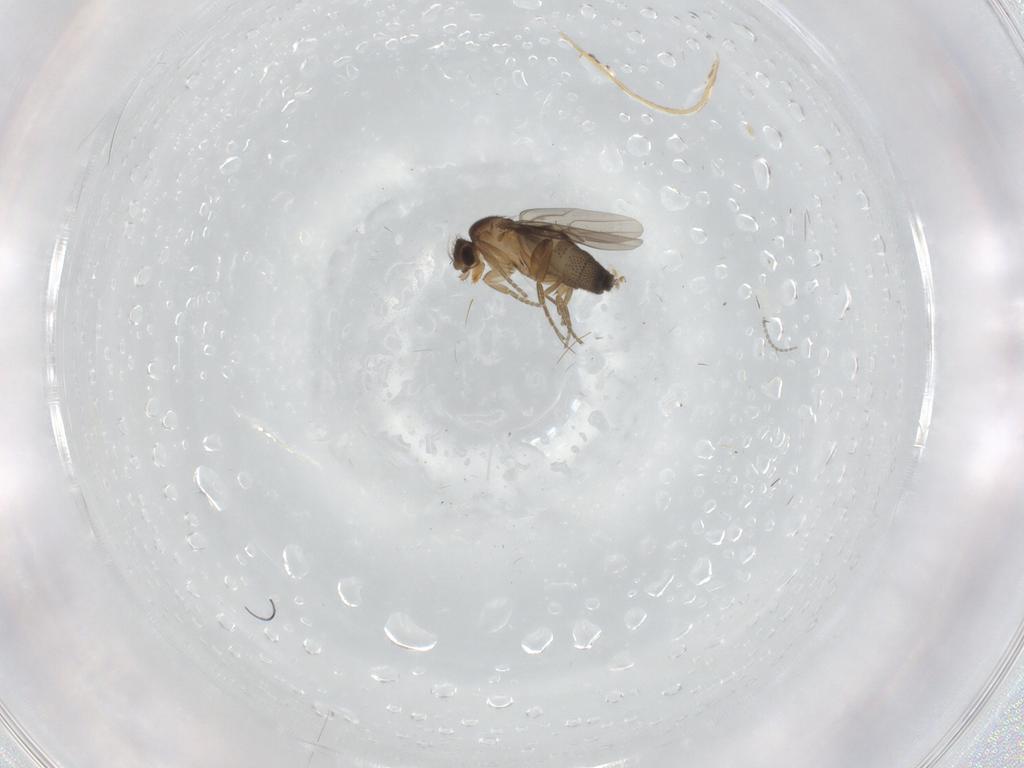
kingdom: Animalia
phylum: Arthropoda
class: Insecta
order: Diptera
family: Phoridae
